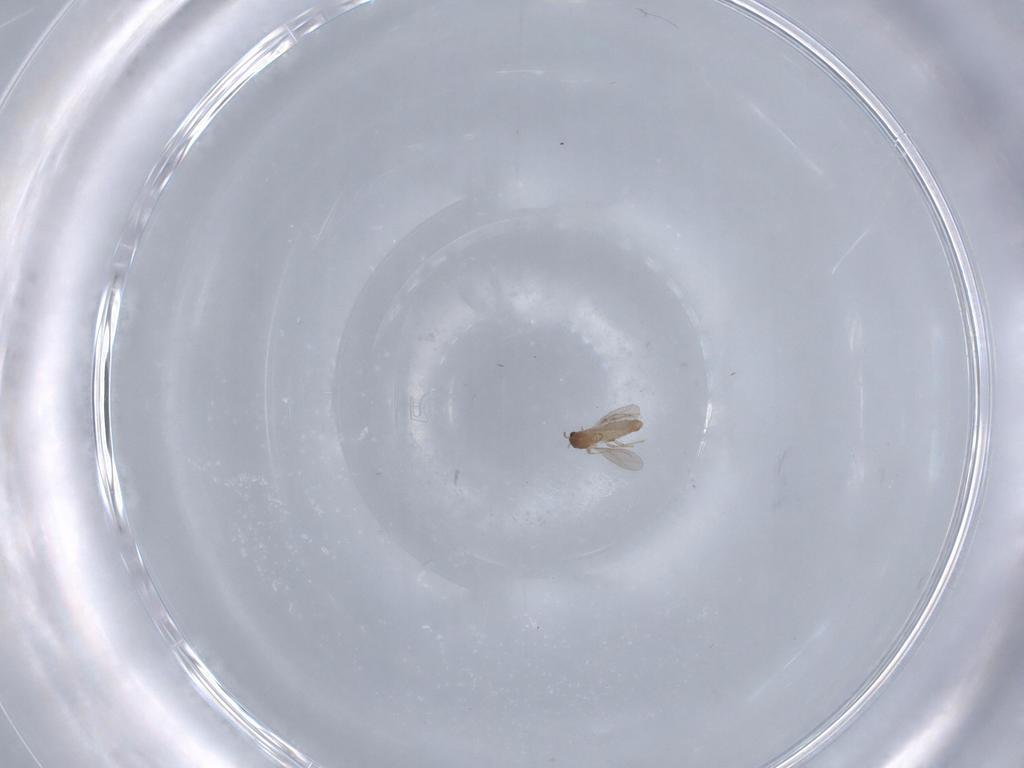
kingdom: Animalia
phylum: Arthropoda
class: Insecta
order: Diptera
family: Chironomidae
